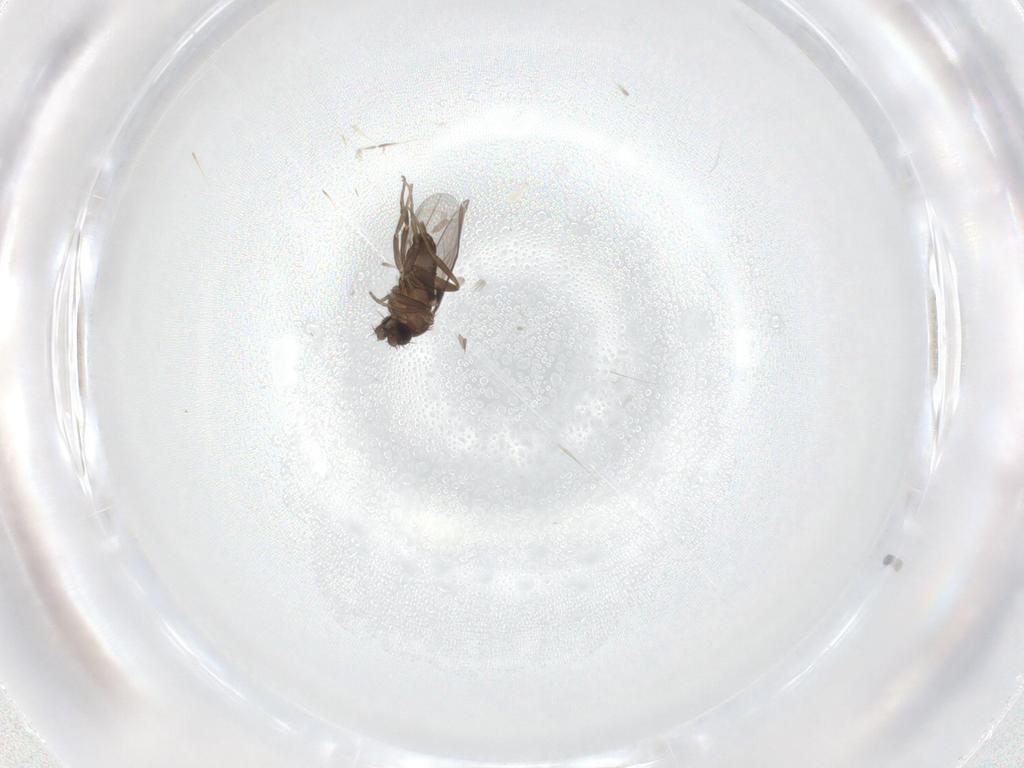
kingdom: Animalia
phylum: Arthropoda
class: Insecta
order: Diptera
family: Phoridae
